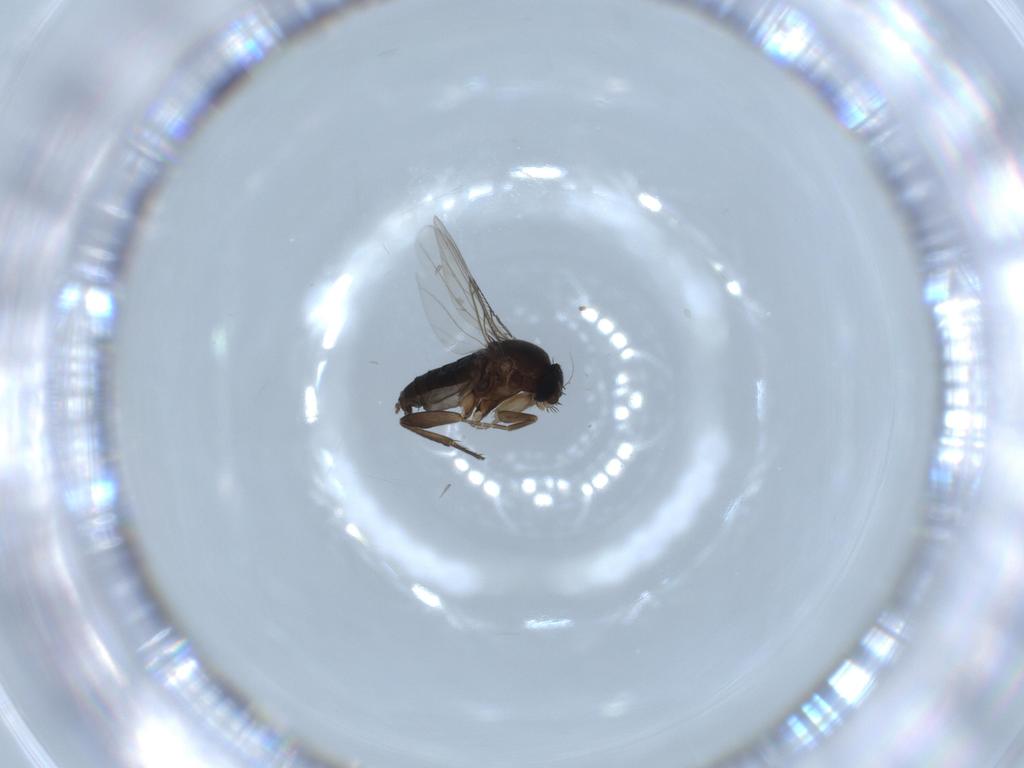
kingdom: Animalia
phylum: Arthropoda
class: Insecta
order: Diptera
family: Phoridae
